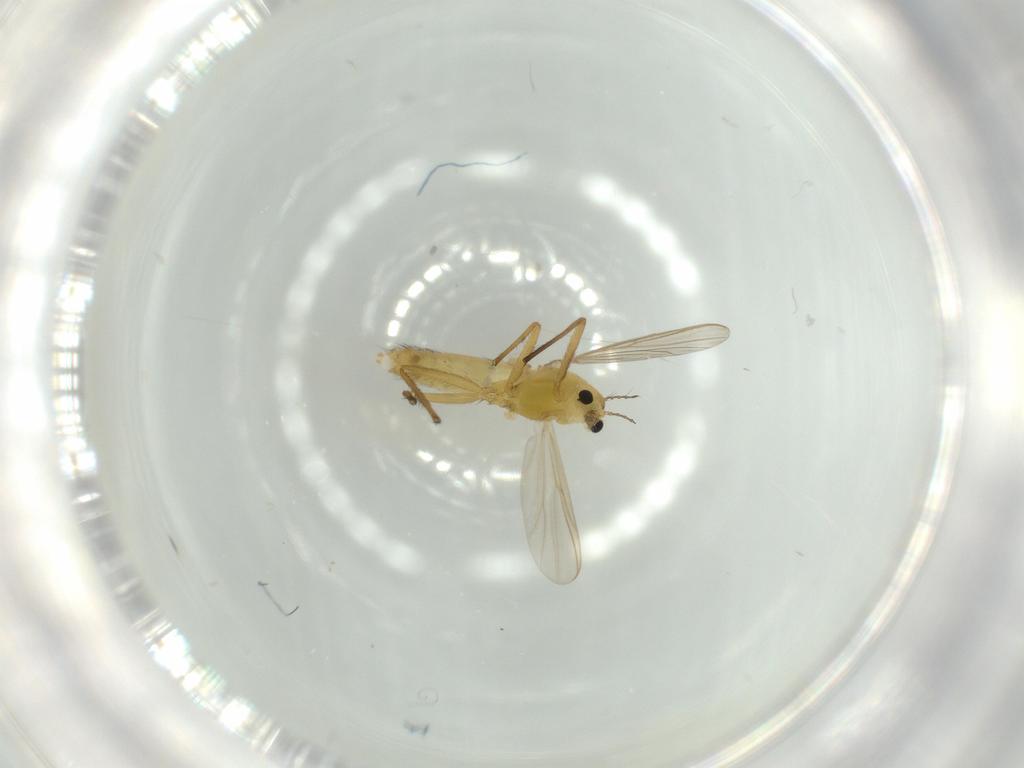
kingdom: Animalia
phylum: Arthropoda
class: Insecta
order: Diptera
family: Chironomidae
